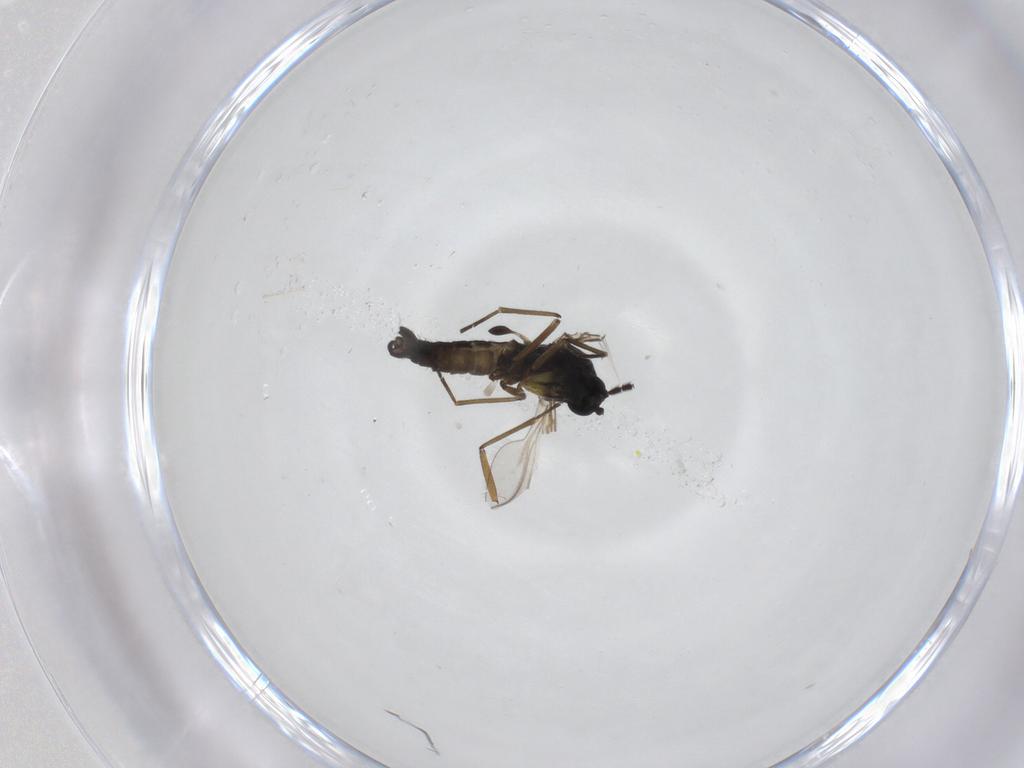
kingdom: Animalia
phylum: Arthropoda
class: Insecta
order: Diptera
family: Sciaridae
